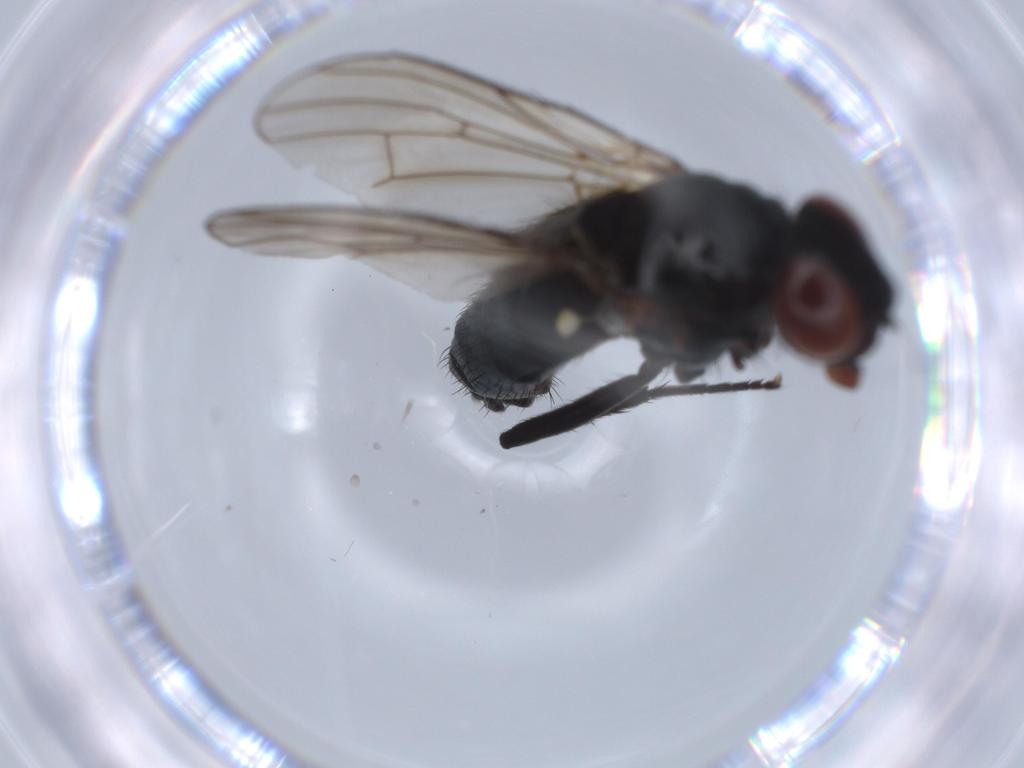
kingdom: Animalia
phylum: Arthropoda
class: Insecta
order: Diptera
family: Anthomyiidae
